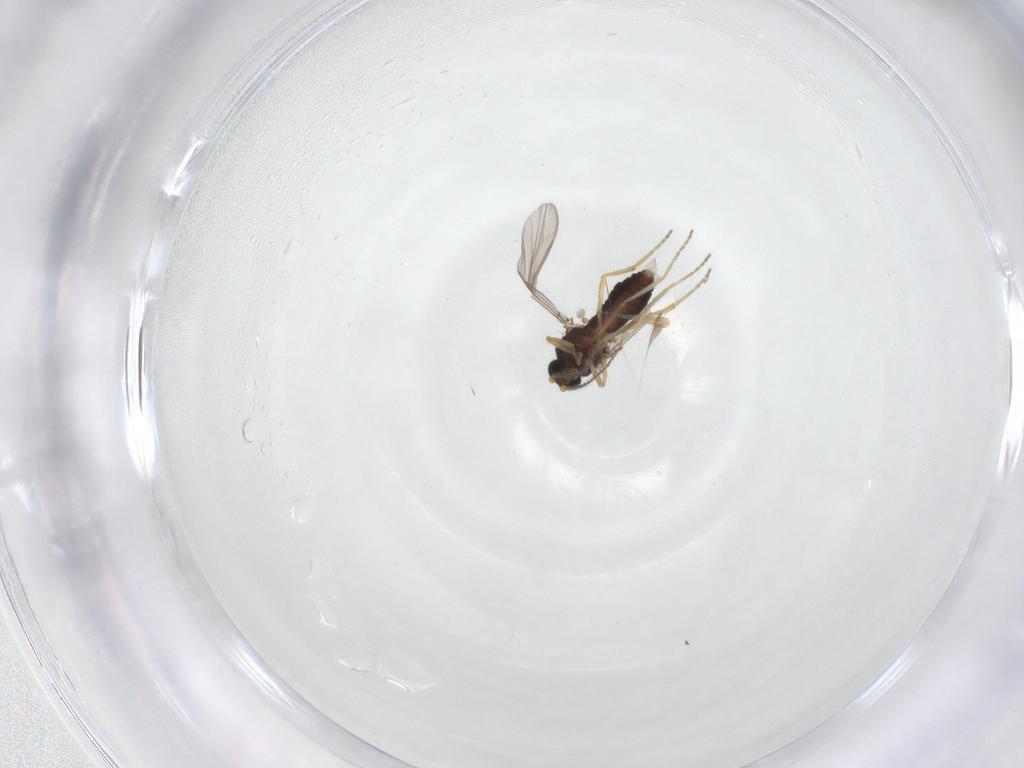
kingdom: Animalia
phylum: Arthropoda
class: Insecta
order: Diptera
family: Ceratopogonidae
